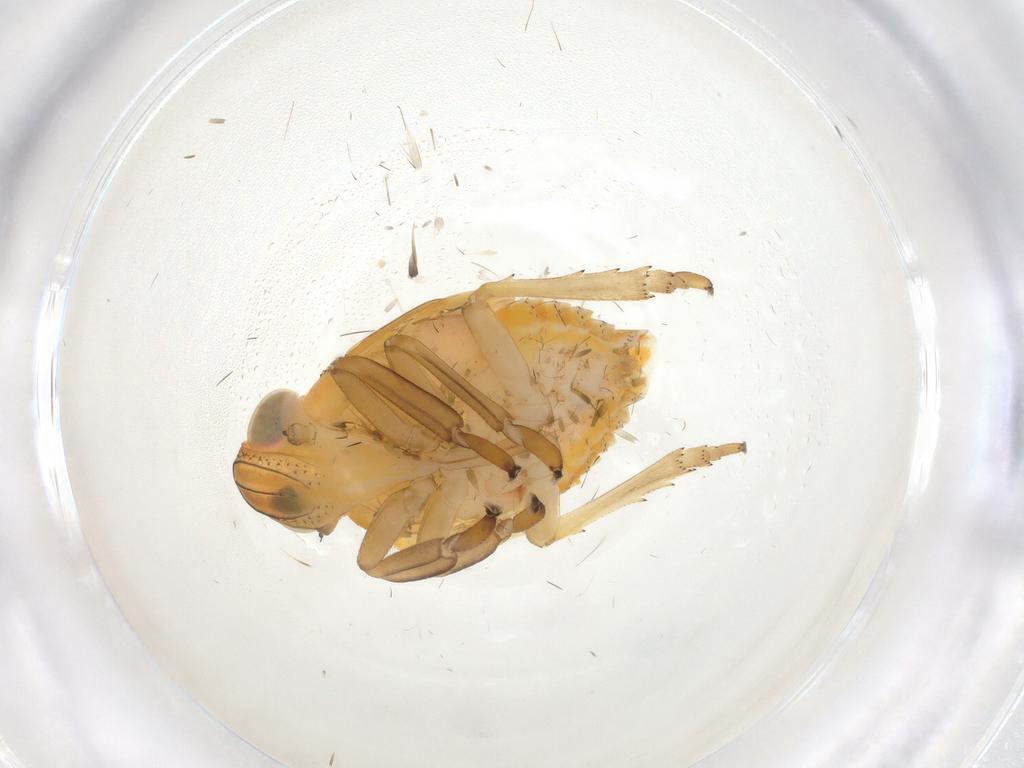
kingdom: Animalia
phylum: Arthropoda
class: Insecta
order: Hemiptera
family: Issidae
